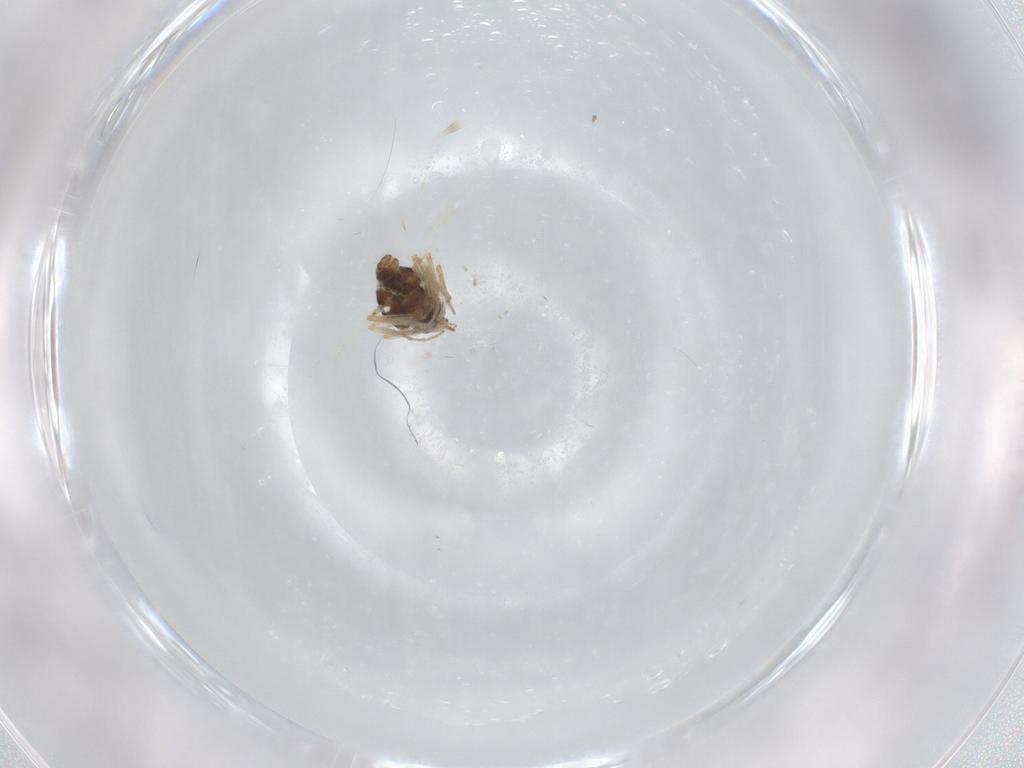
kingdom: Animalia
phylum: Arthropoda
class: Insecta
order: Diptera
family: Ceratopogonidae
